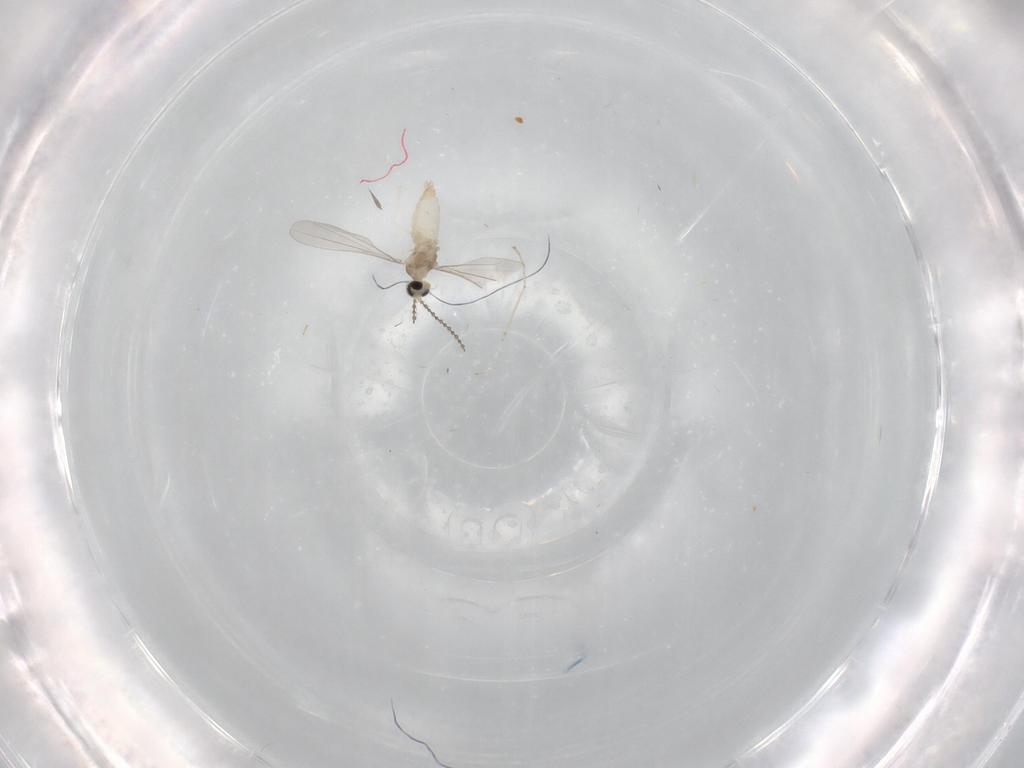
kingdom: Animalia
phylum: Arthropoda
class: Insecta
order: Diptera
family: Cecidomyiidae
